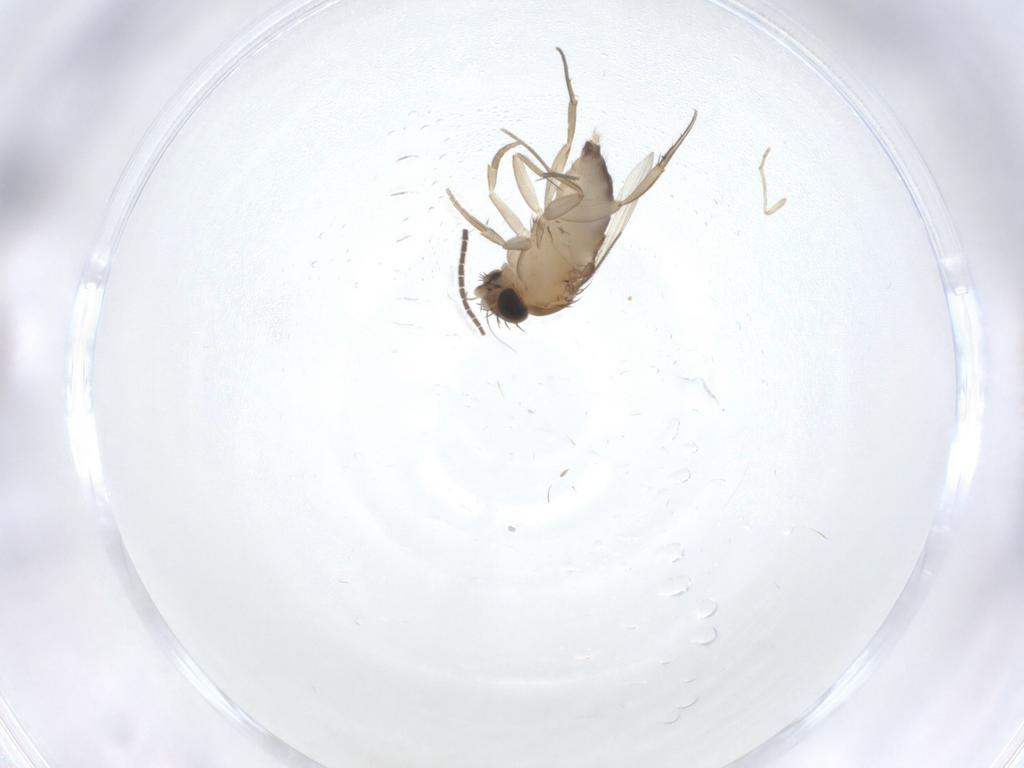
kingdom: Animalia
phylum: Arthropoda
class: Insecta
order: Diptera
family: Phoridae
